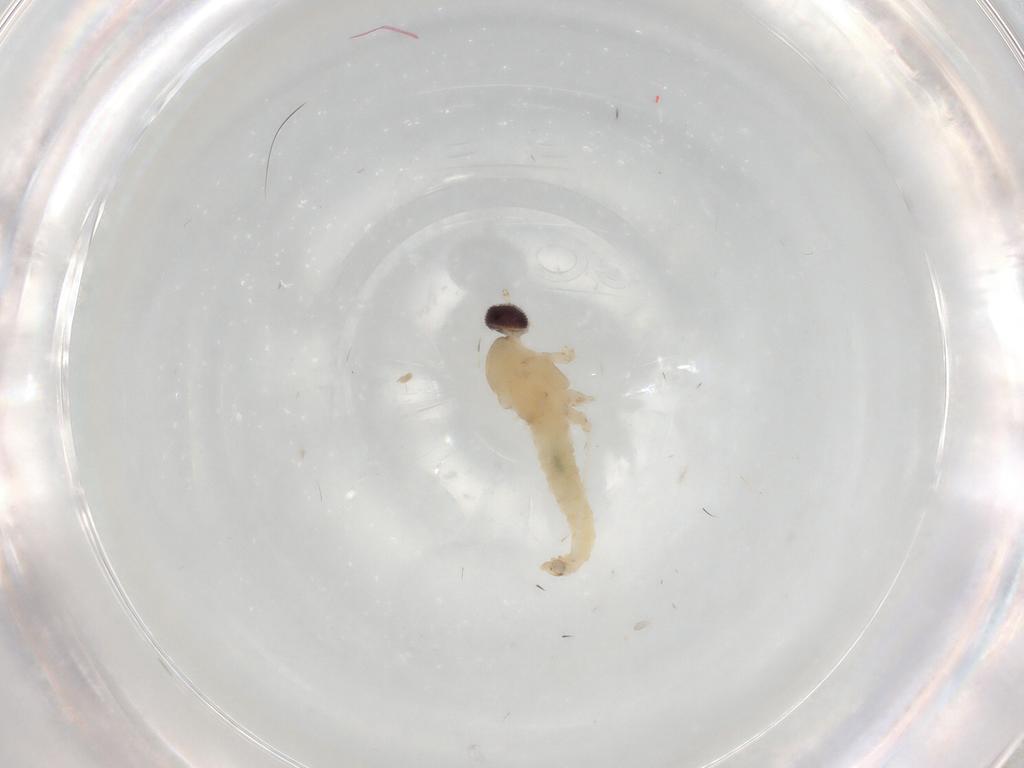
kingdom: Animalia
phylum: Arthropoda
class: Insecta
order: Diptera
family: Cecidomyiidae
